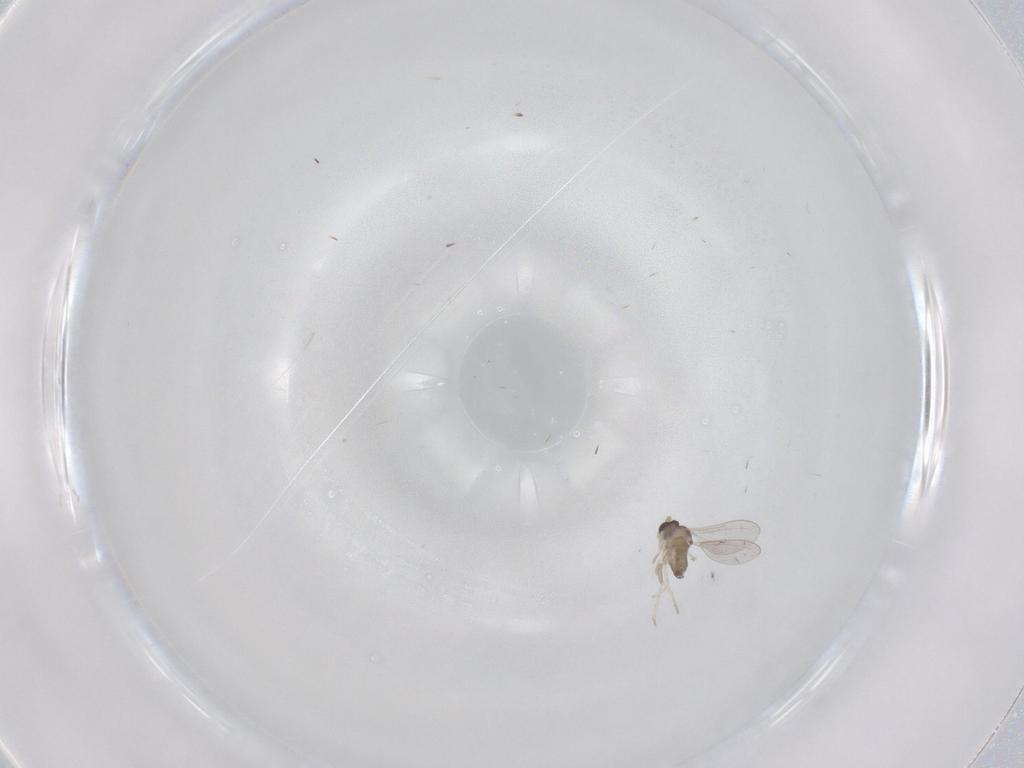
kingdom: Animalia
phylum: Arthropoda
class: Insecta
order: Diptera
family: Cecidomyiidae
